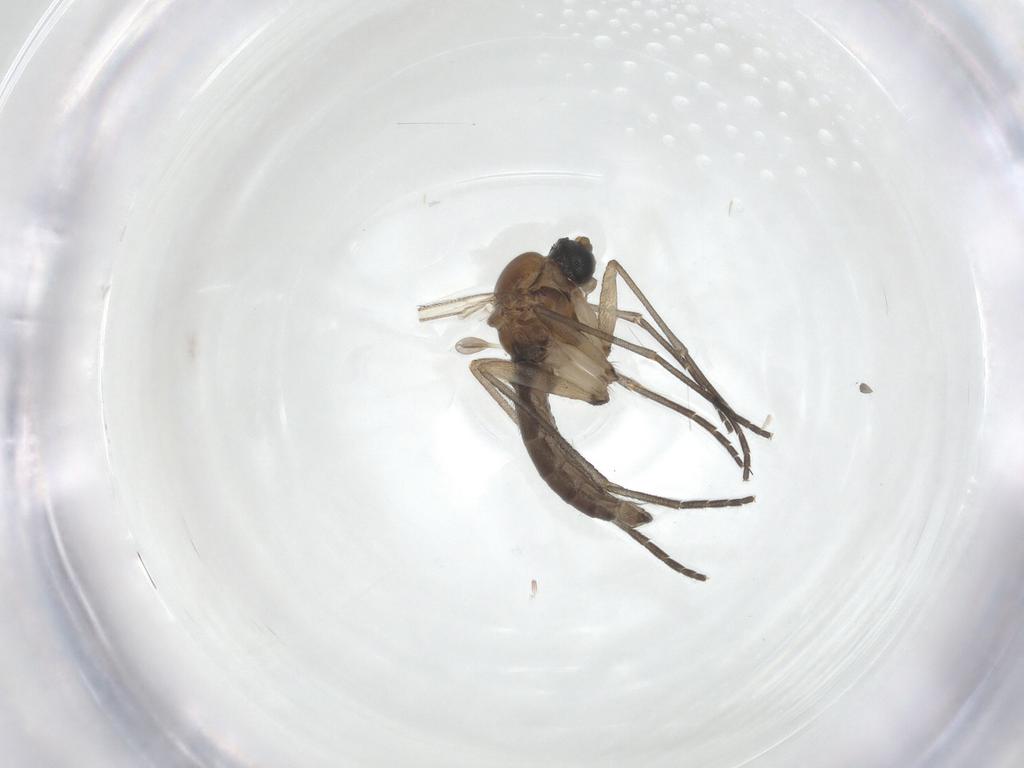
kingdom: Animalia
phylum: Arthropoda
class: Insecta
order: Diptera
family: Sciaridae
